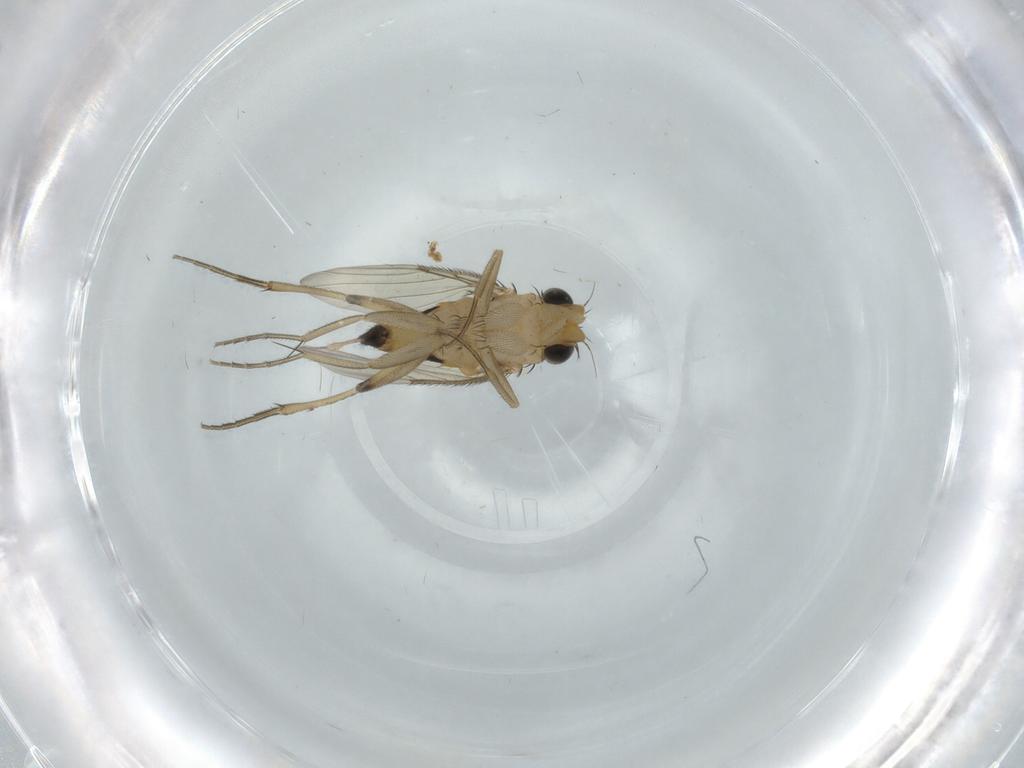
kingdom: Animalia
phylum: Arthropoda
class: Insecta
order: Diptera
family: Phoridae
